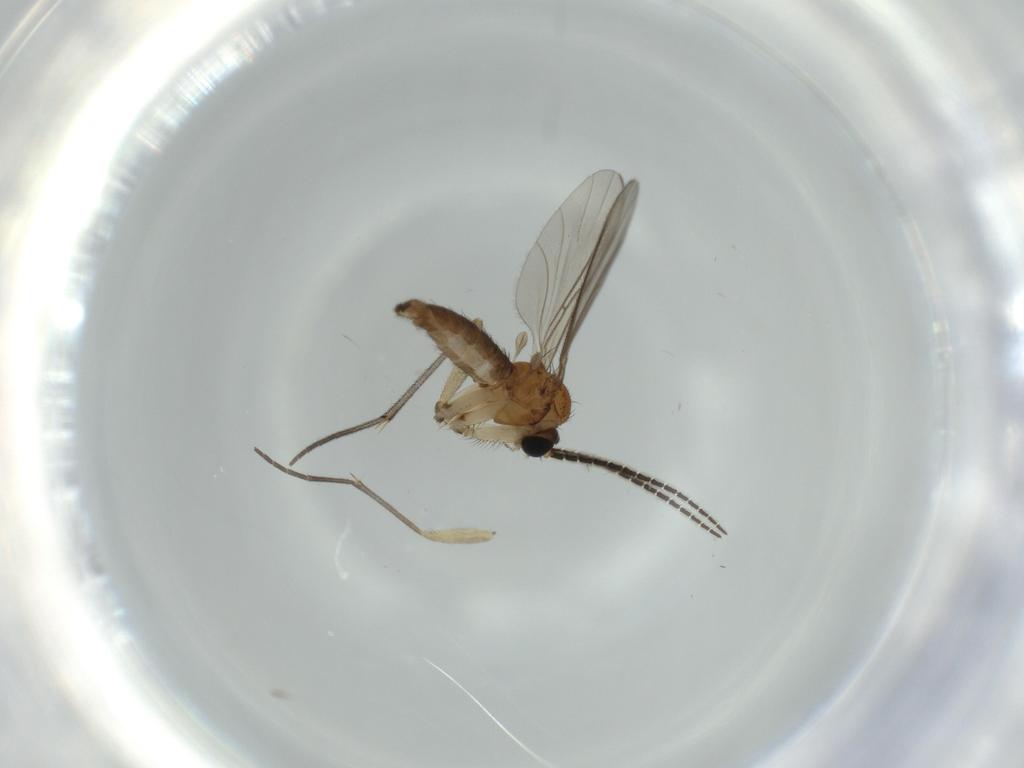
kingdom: Animalia
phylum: Arthropoda
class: Insecta
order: Diptera
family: Sciaridae
